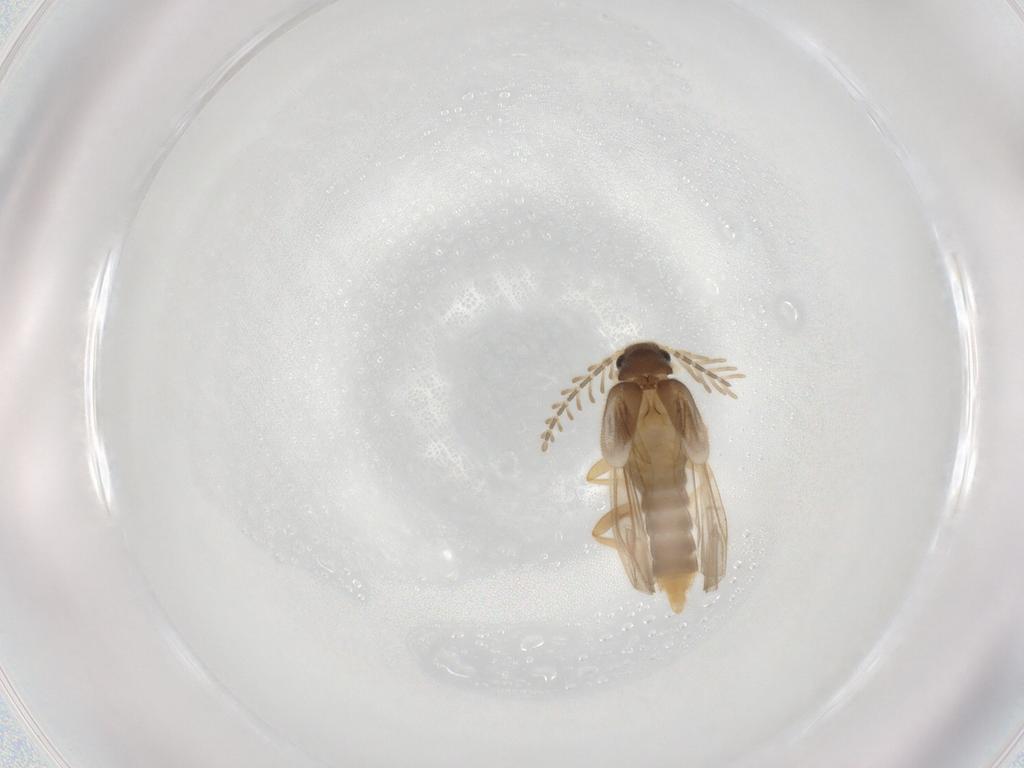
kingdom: Animalia
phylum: Arthropoda
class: Insecta
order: Coleoptera
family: Phengodidae
